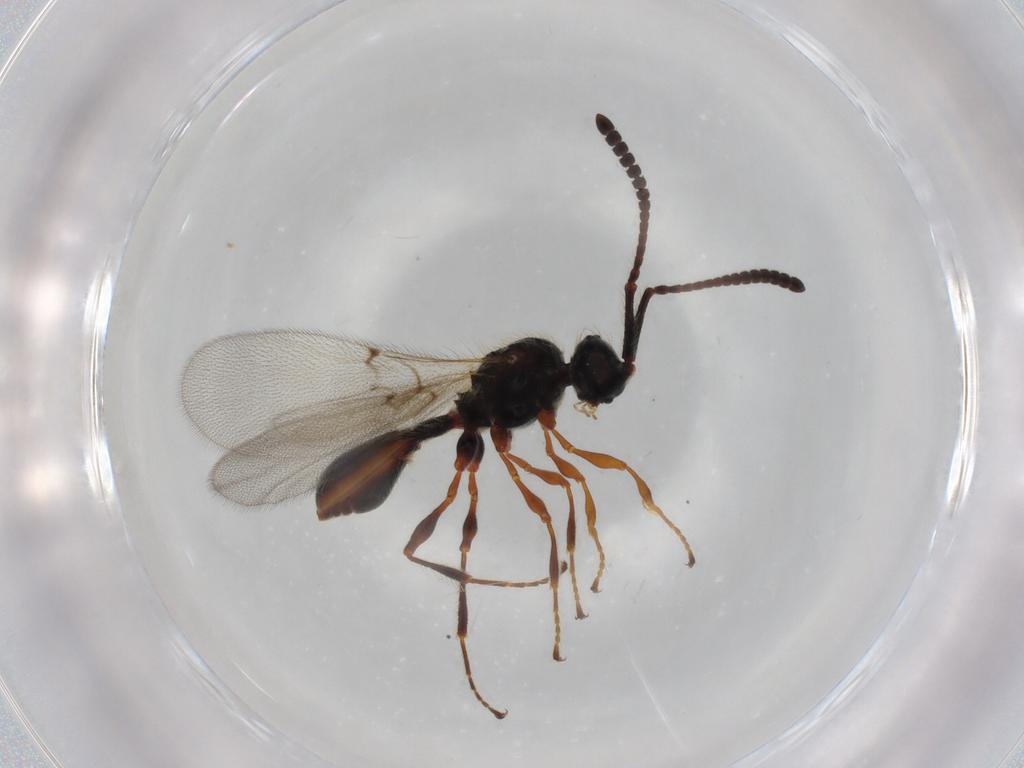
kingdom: Animalia
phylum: Arthropoda
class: Insecta
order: Hymenoptera
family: Diapriidae
